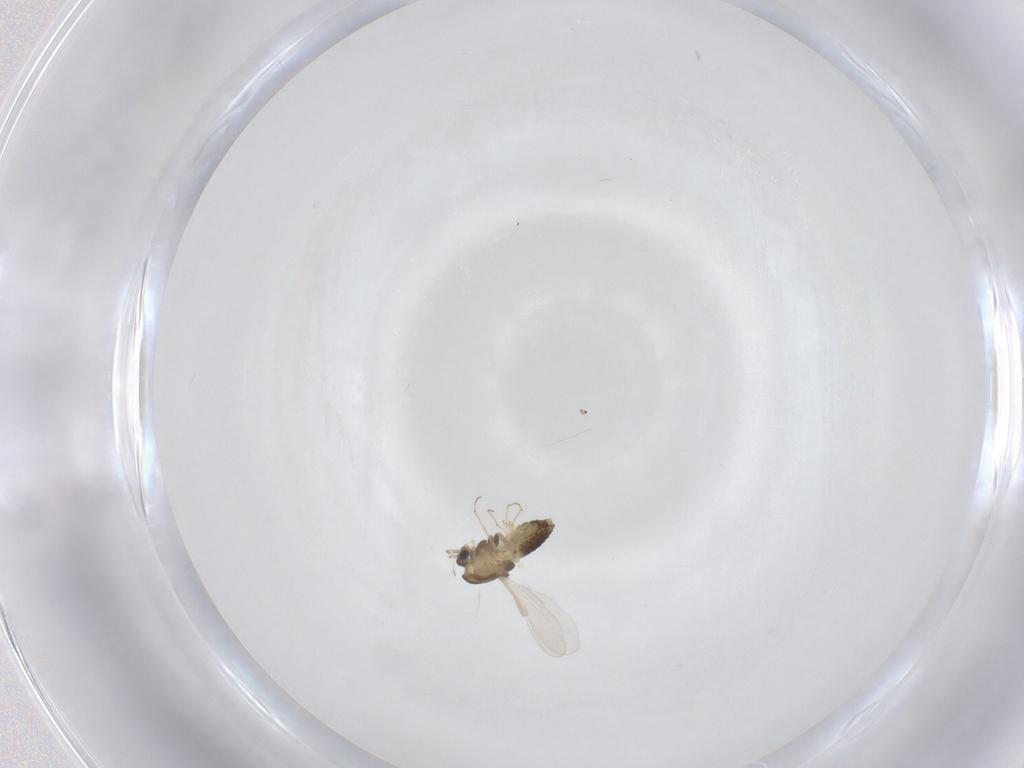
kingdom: Animalia
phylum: Arthropoda
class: Insecta
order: Diptera
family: Chironomidae
